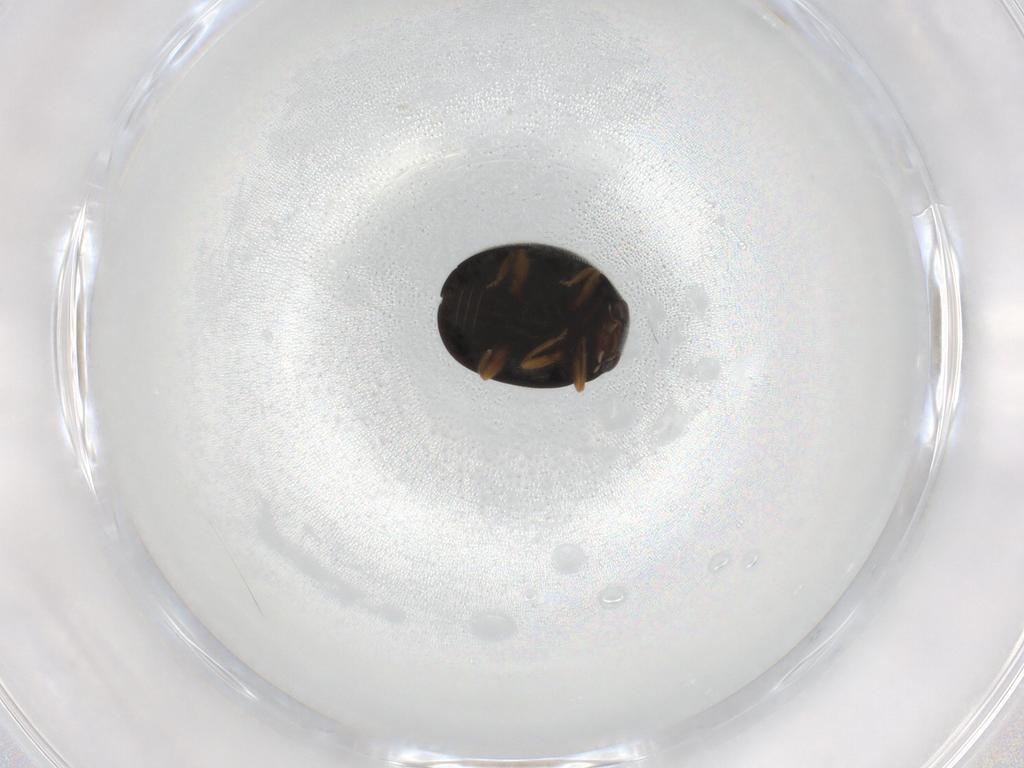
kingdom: Animalia
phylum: Arthropoda
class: Insecta
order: Coleoptera
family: Coccinellidae
